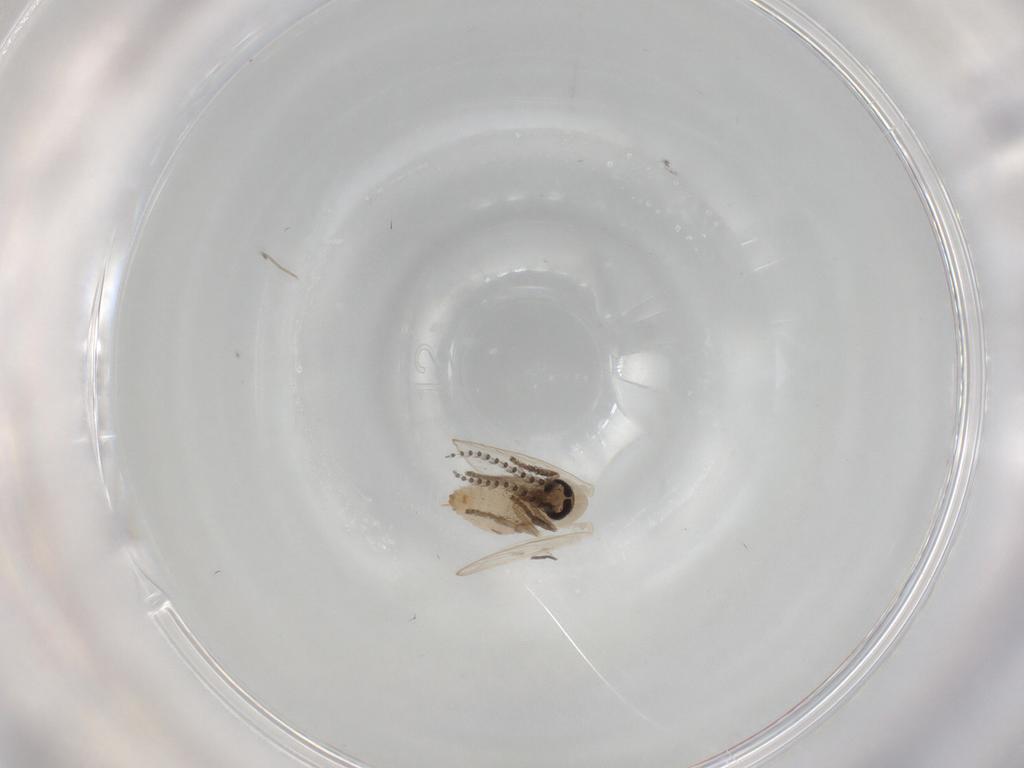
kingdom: Animalia
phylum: Arthropoda
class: Insecta
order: Diptera
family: Psychodidae
